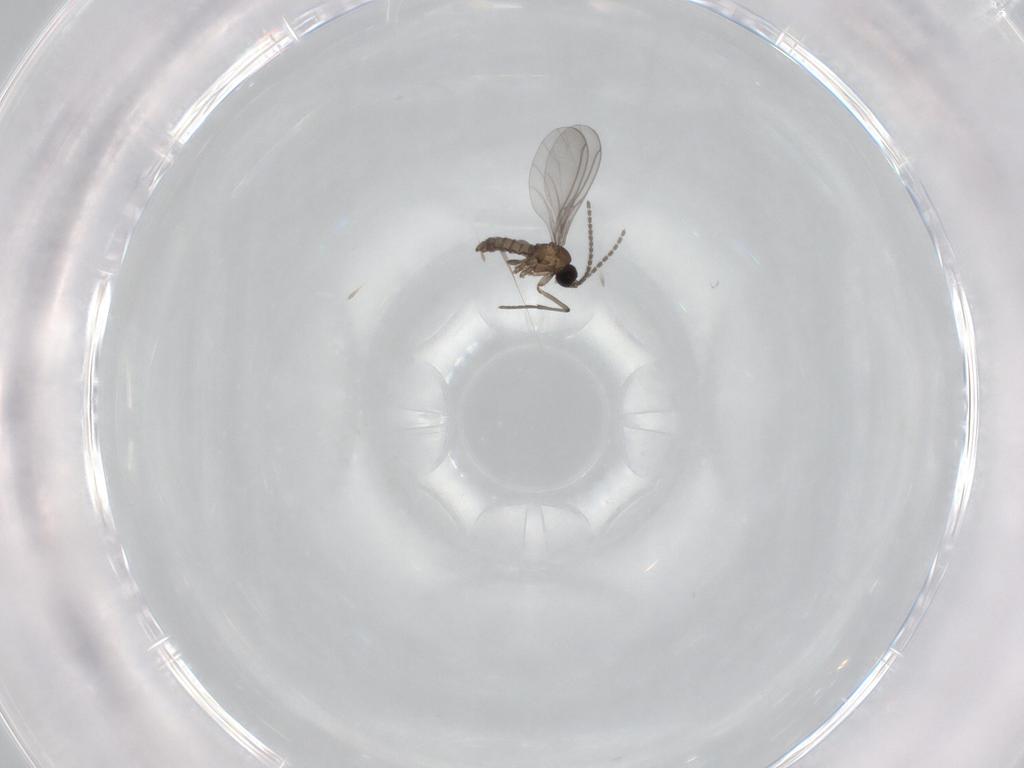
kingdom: Animalia
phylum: Arthropoda
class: Insecta
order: Diptera
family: Sciaridae
